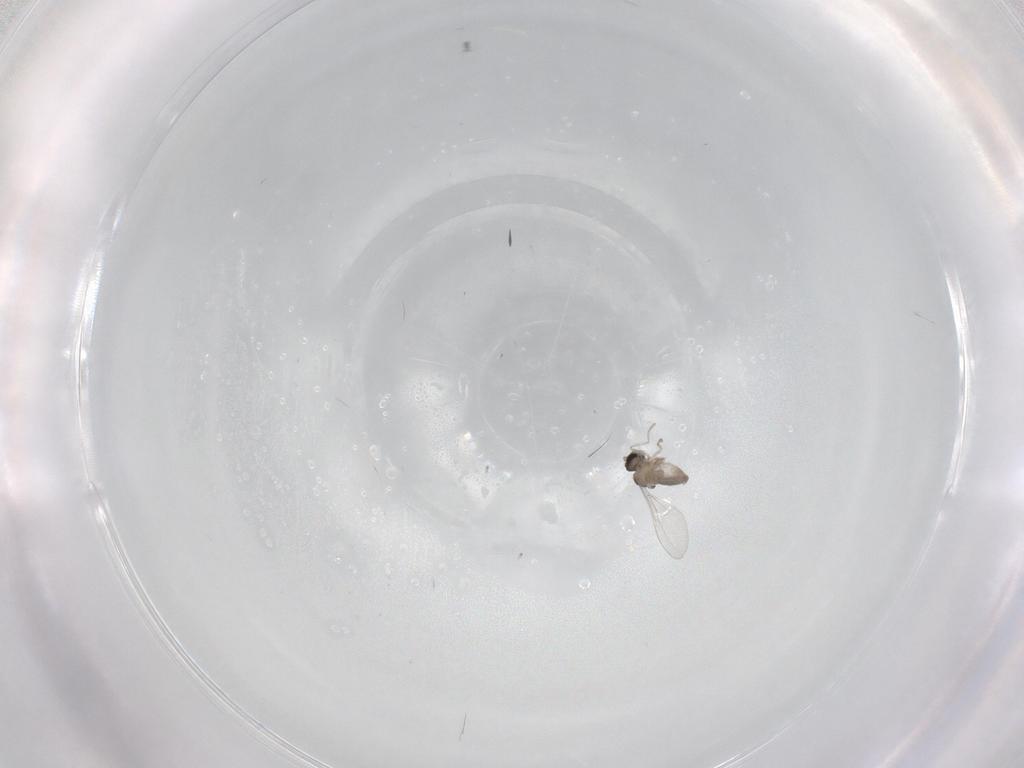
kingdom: Animalia
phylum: Arthropoda
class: Insecta
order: Diptera
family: Cecidomyiidae
